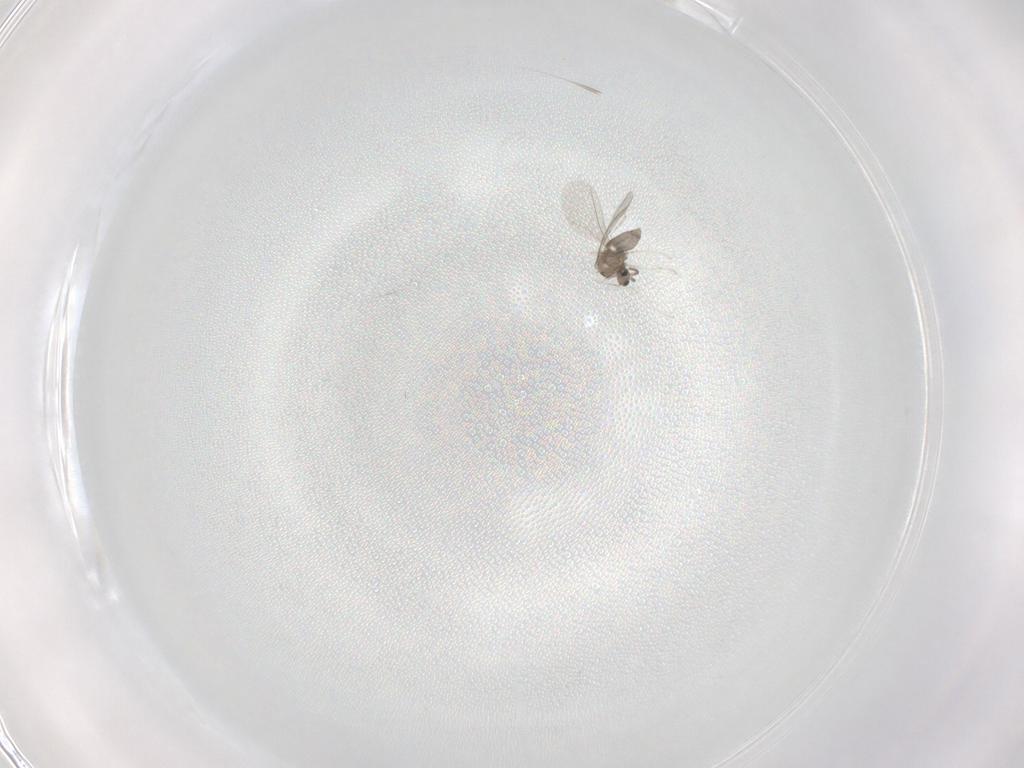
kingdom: Animalia
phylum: Arthropoda
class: Insecta
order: Diptera
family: Cecidomyiidae
